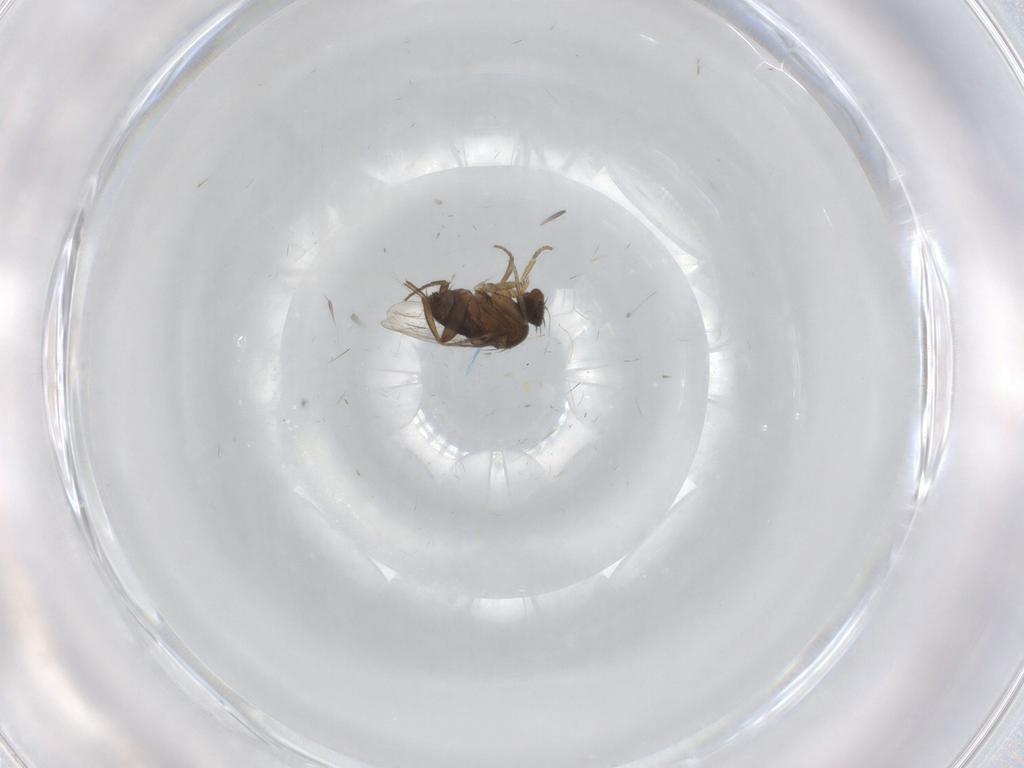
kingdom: Animalia
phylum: Arthropoda
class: Insecta
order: Diptera
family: Phoridae
